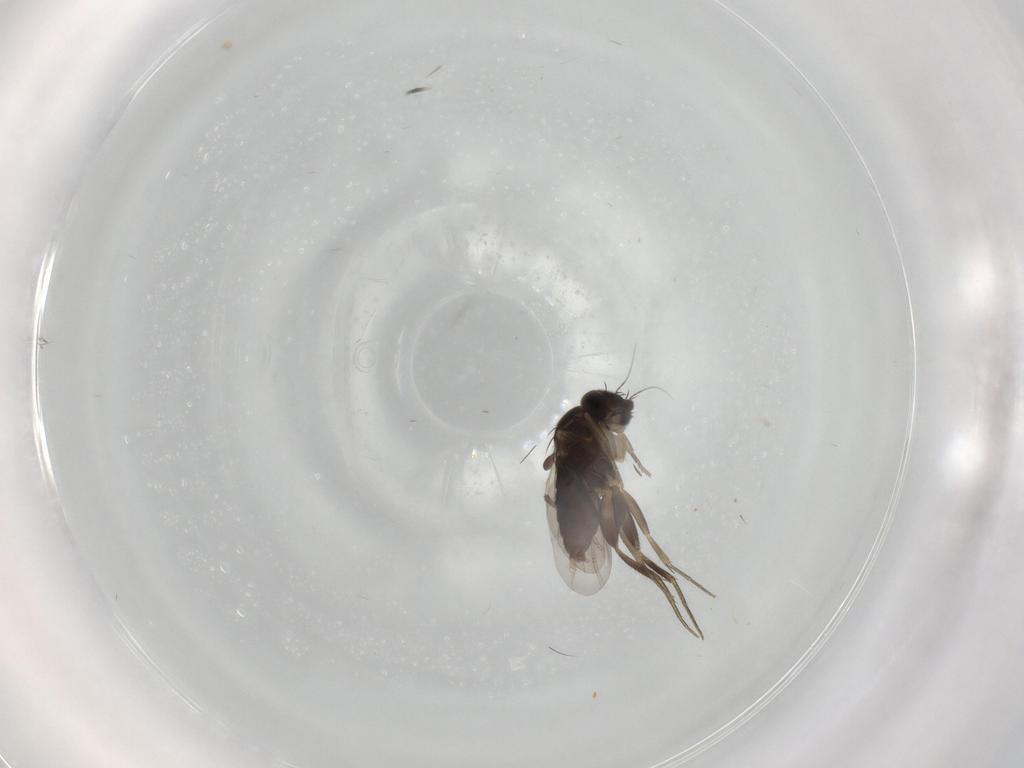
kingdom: Animalia
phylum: Arthropoda
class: Insecta
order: Diptera
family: Phoridae
